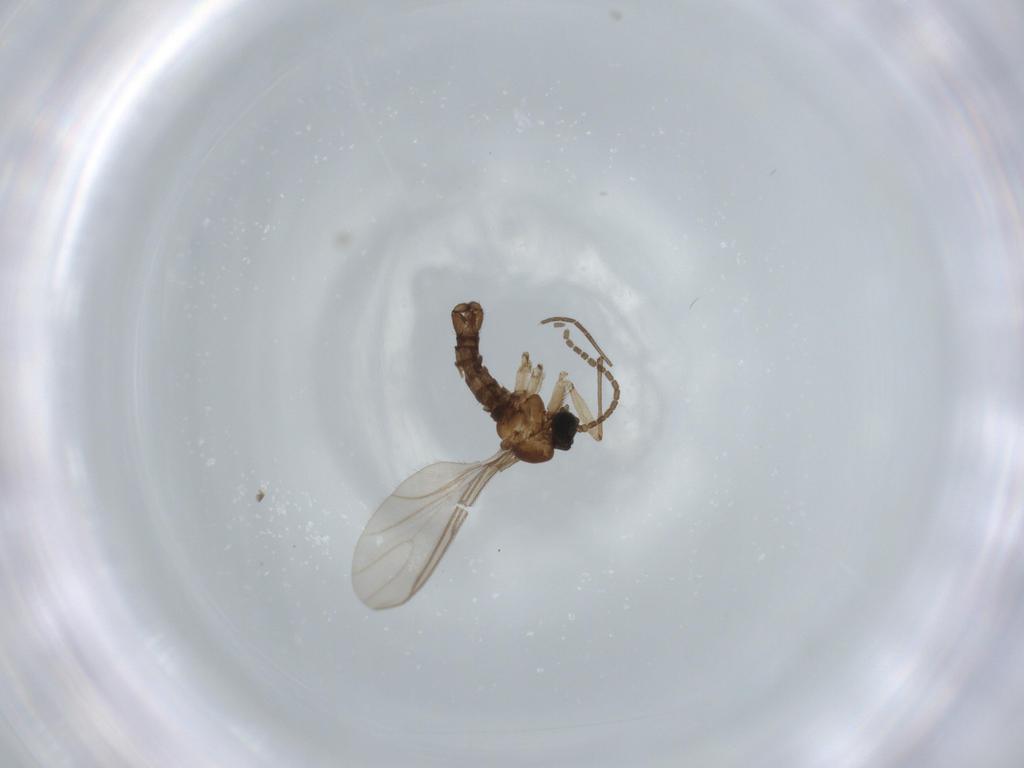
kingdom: Animalia
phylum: Arthropoda
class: Insecta
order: Diptera
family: Sciaridae
